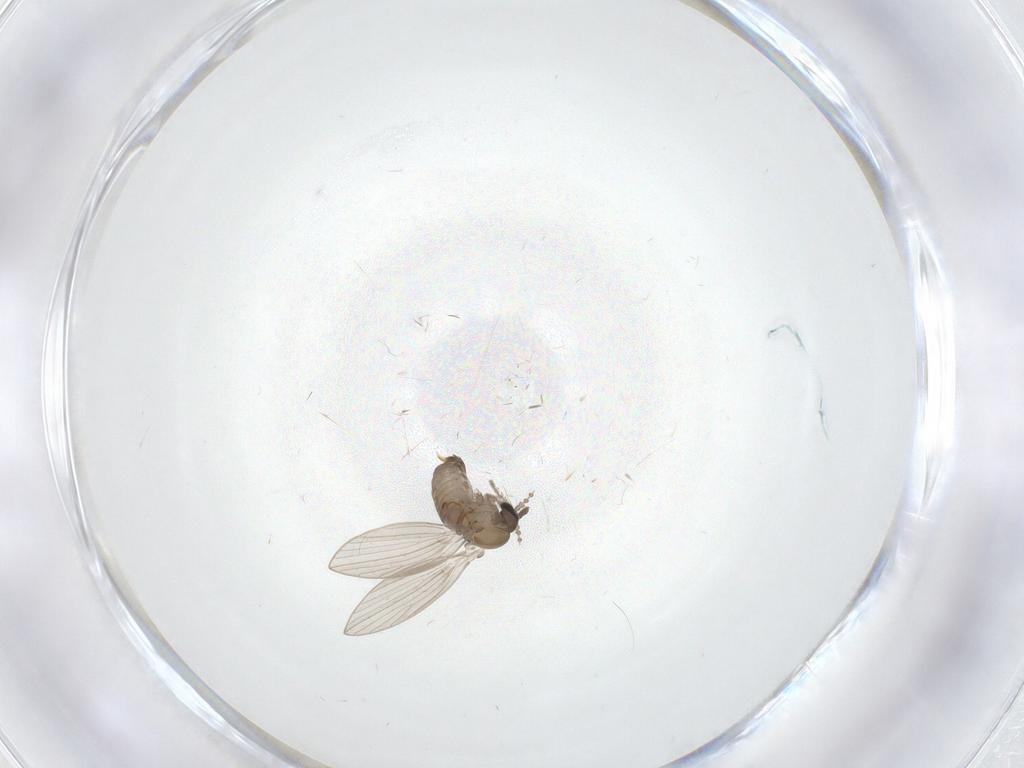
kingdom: Animalia
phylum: Arthropoda
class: Insecta
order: Diptera
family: Psychodidae
